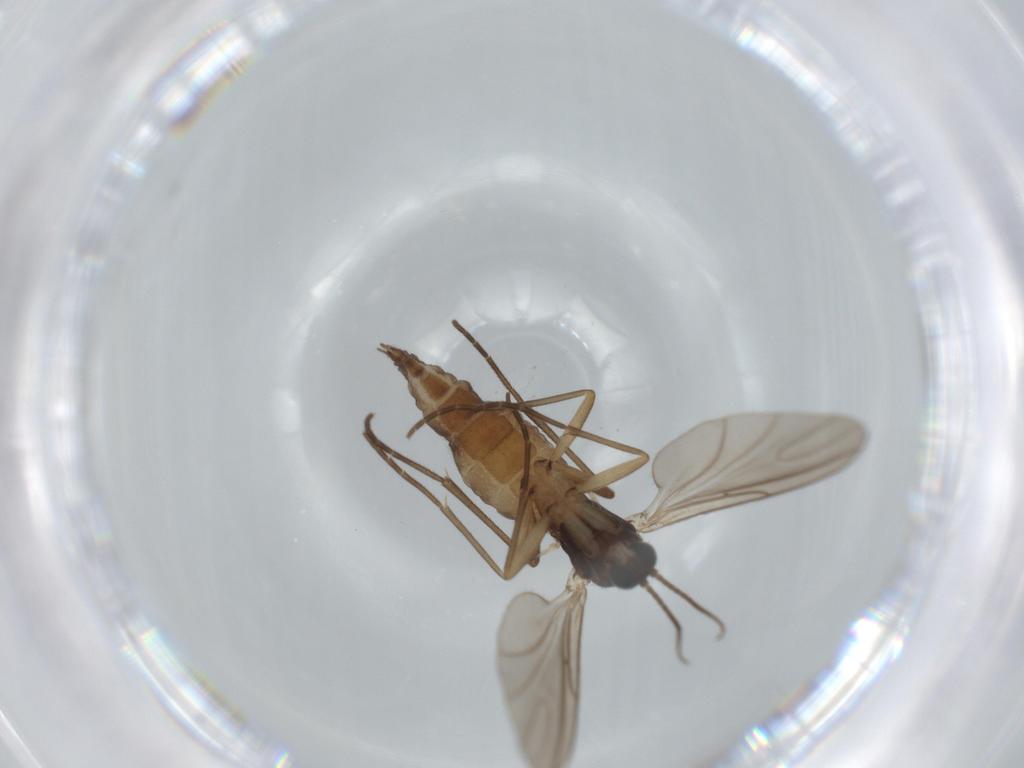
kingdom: Animalia
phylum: Arthropoda
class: Insecta
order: Diptera
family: Sciaridae
